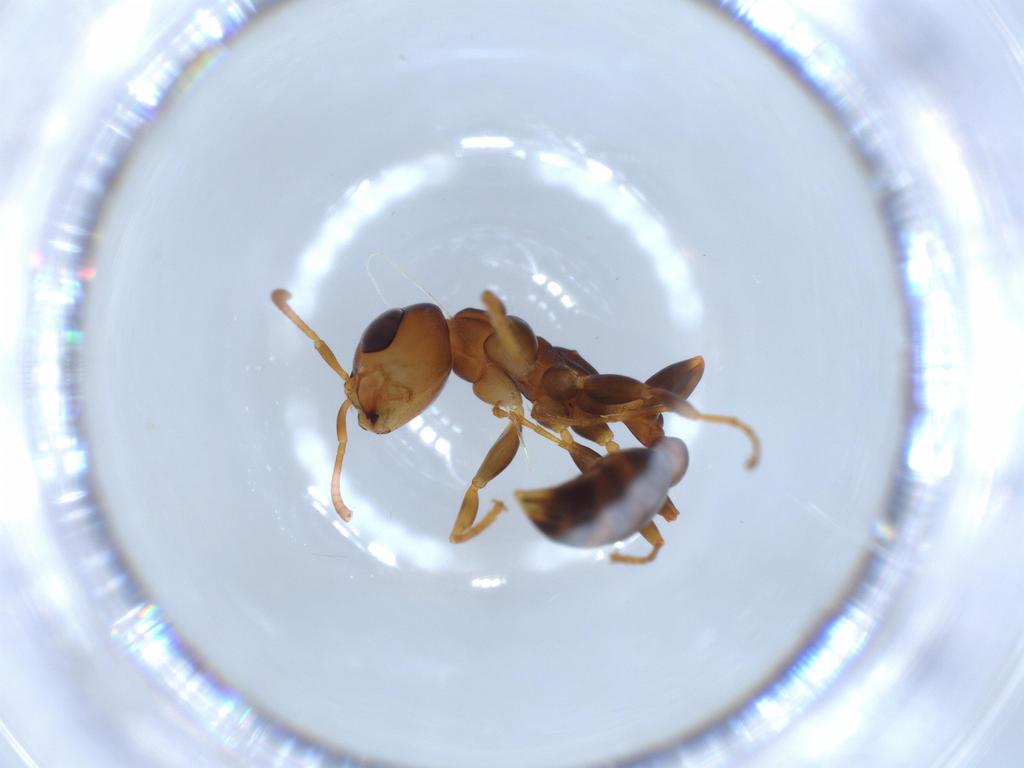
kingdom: Animalia
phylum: Arthropoda
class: Insecta
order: Hymenoptera
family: Formicidae
